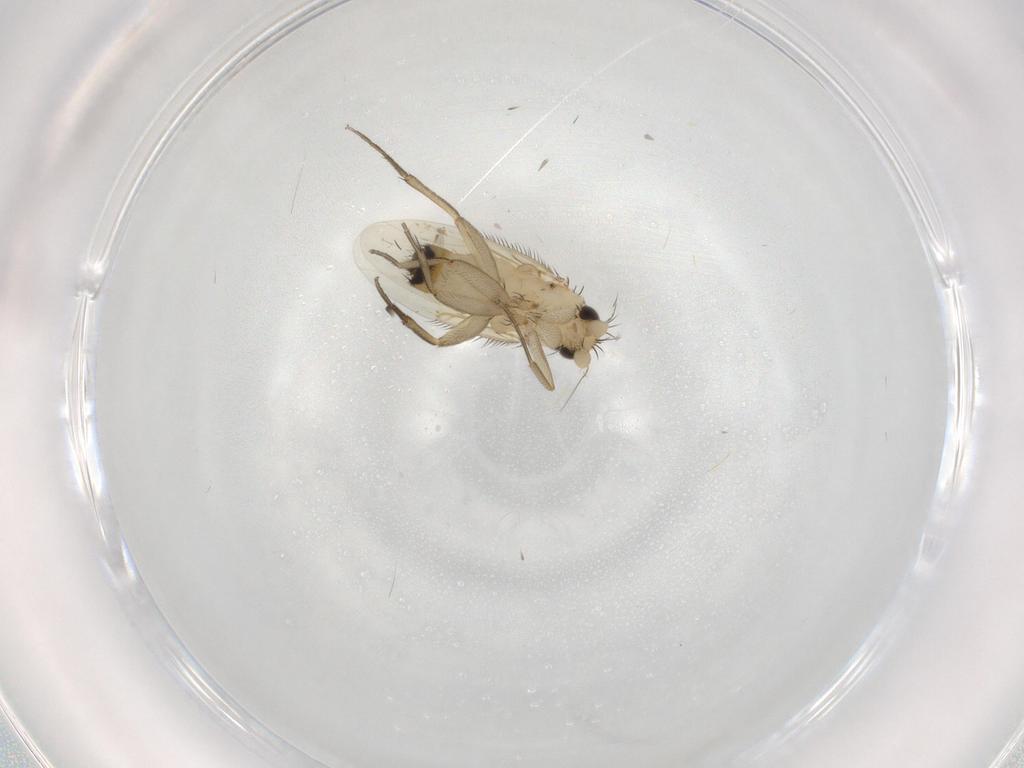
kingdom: Animalia
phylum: Arthropoda
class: Insecta
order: Diptera
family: Phoridae
